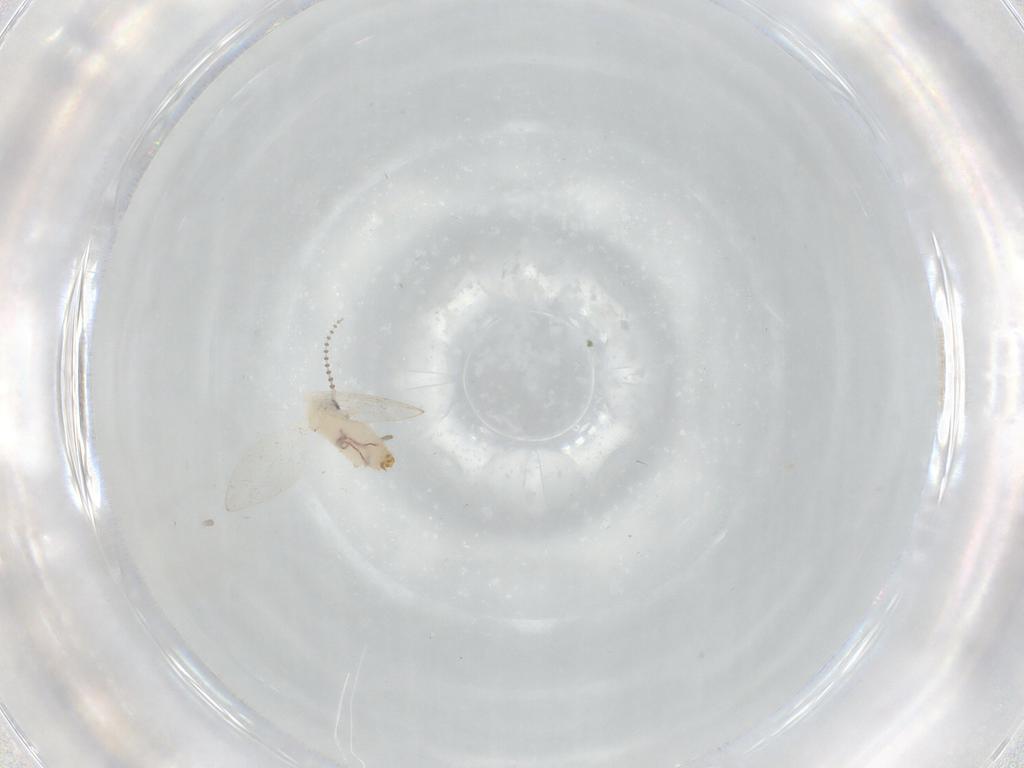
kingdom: Animalia
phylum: Arthropoda
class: Insecta
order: Diptera
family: Psychodidae
